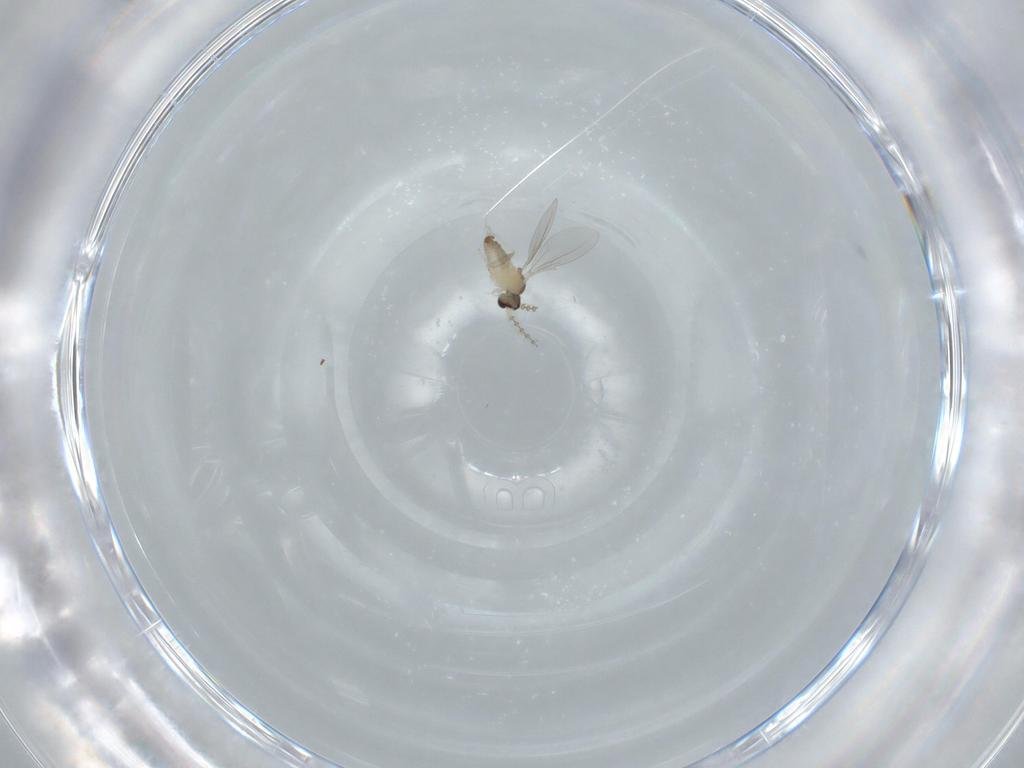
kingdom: Animalia
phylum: Arthropoda
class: Insecta
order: Diptera
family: Cecidomyiidae
